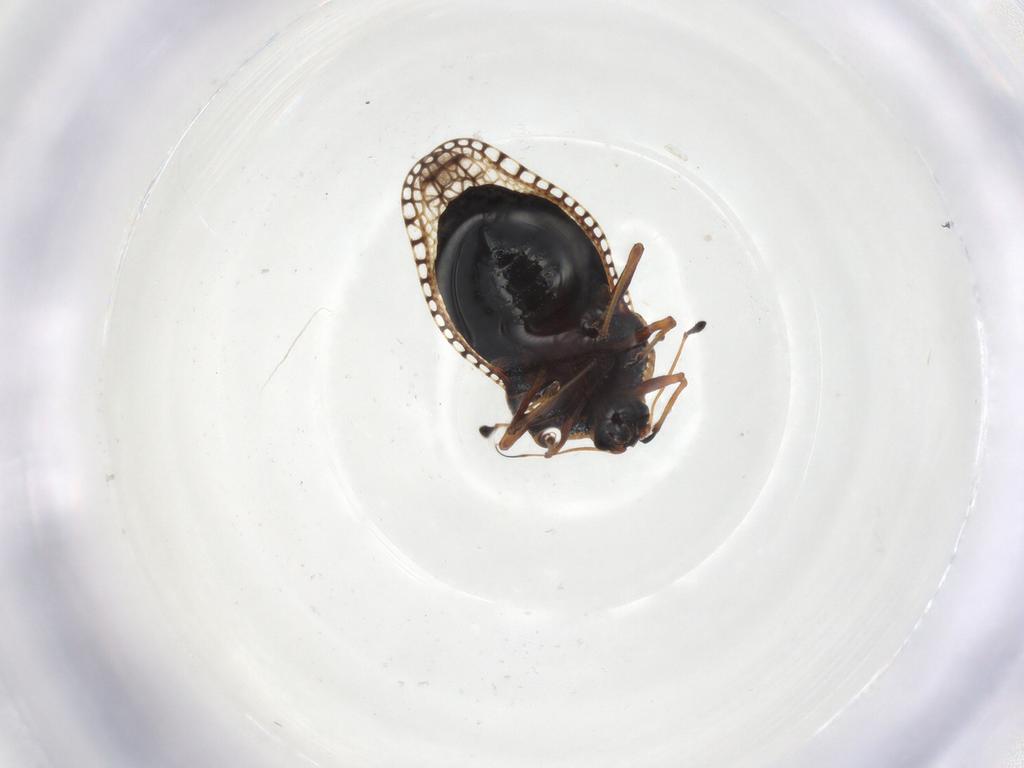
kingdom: Animalia
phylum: Arthropoda
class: Insecta
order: Hemiptera
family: Tingidae
